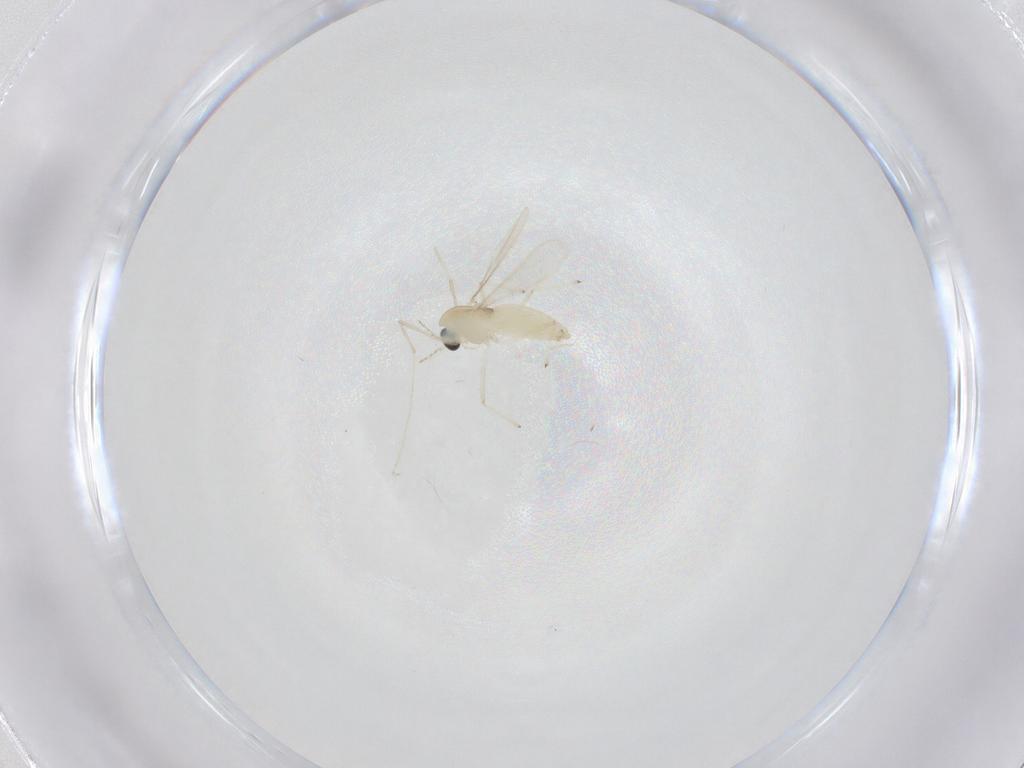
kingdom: Animalia
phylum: Arthropoda
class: Insecta
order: Diptera
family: Chironomidae
